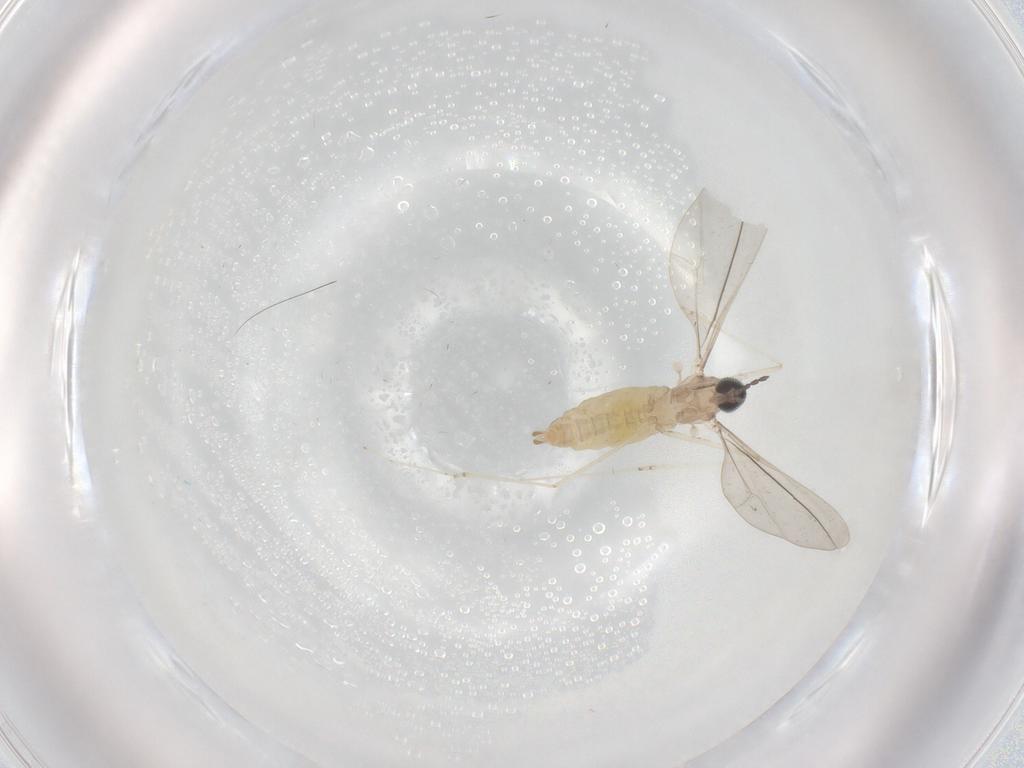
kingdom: Animalia
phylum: Arthropoda
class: Insecta
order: Diptera
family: Cecidomyiidae
